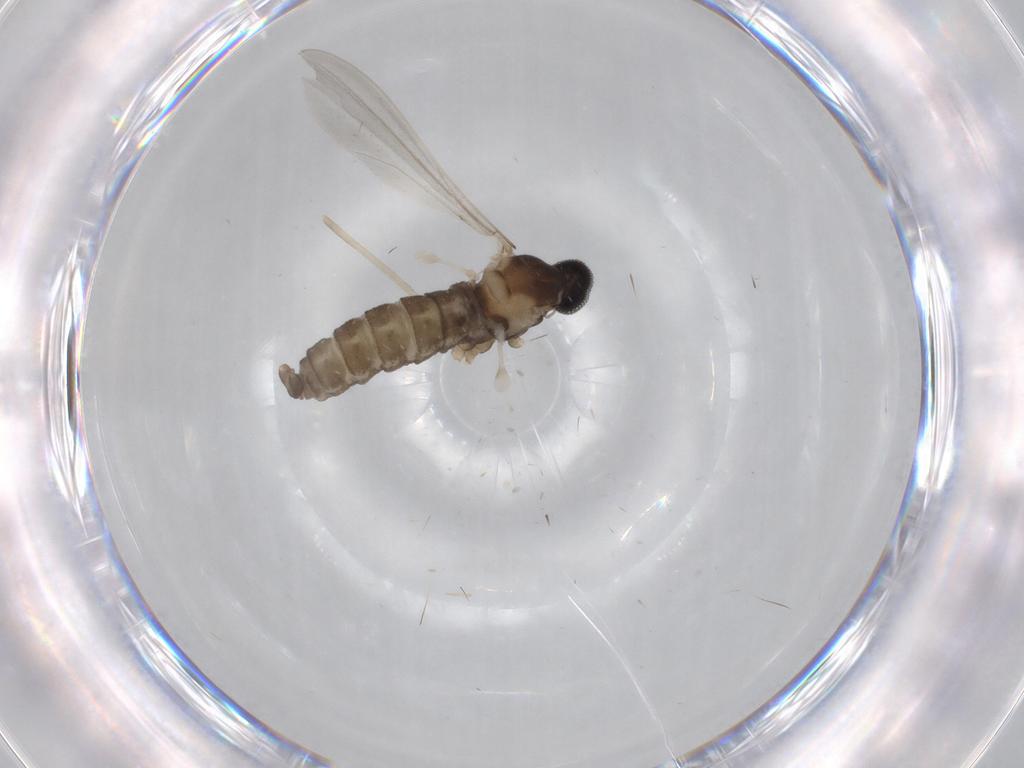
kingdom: Animalia
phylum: Arthropoda
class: Insecta
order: Diptera
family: Cecidomyiidae
